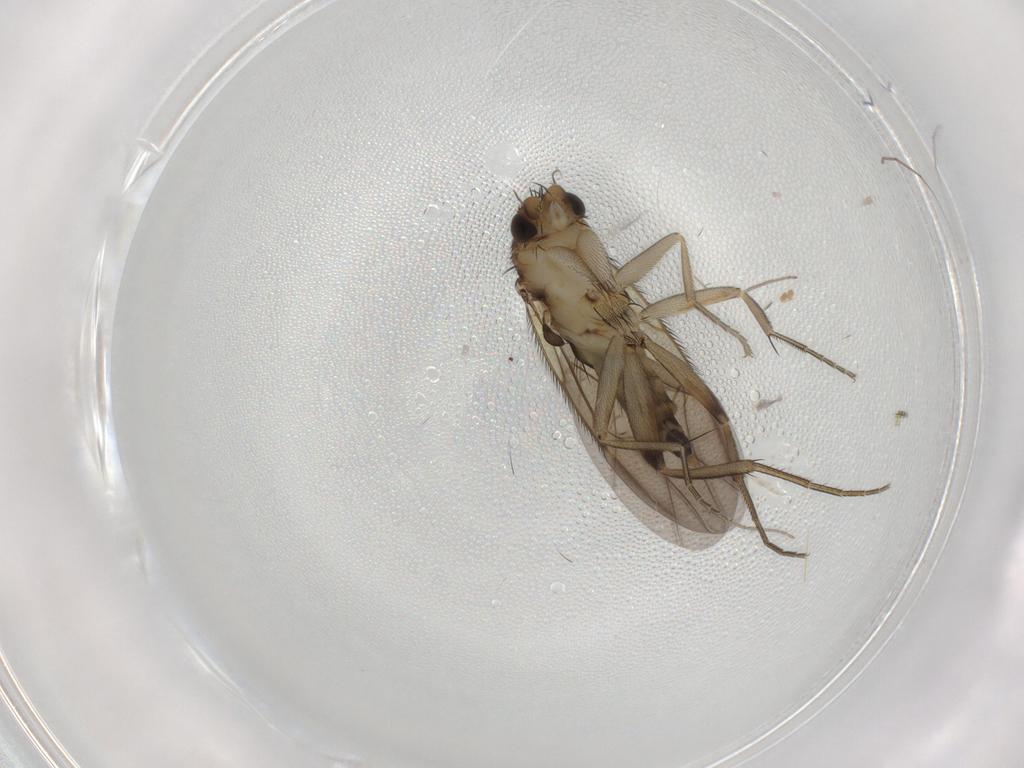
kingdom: Animalia
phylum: Arthropoda
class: Insecta
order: Diptera
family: Phoridae
